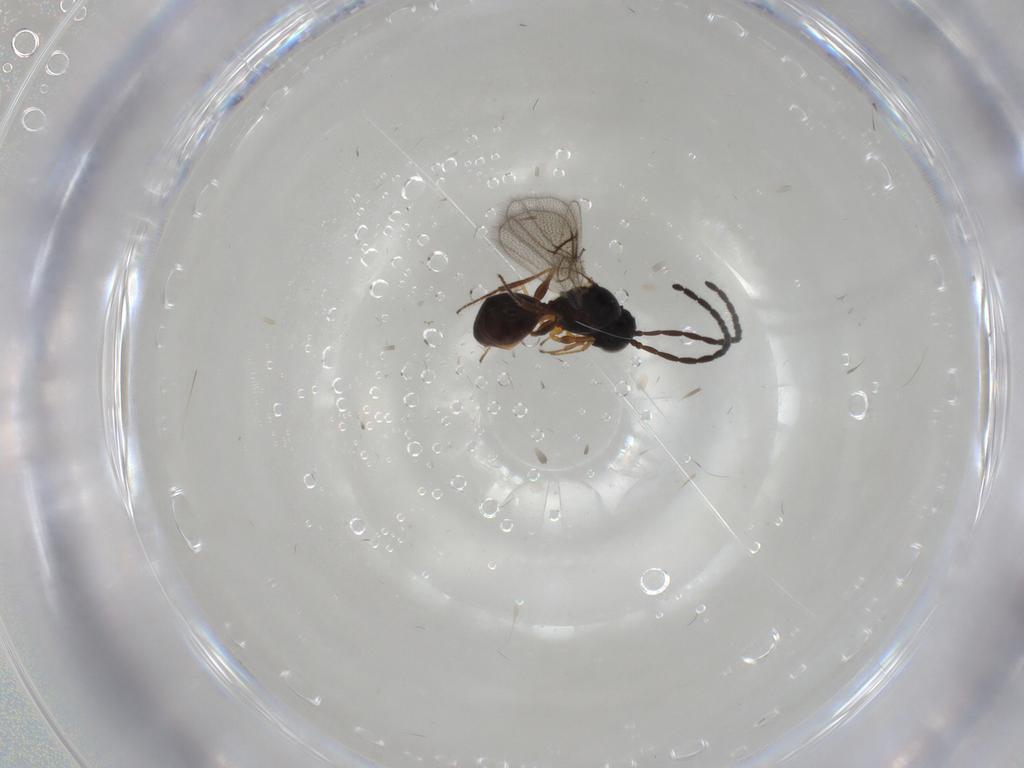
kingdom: Animalia
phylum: Arthropoda
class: Insecta
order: Hymenoptera
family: Figitidae
